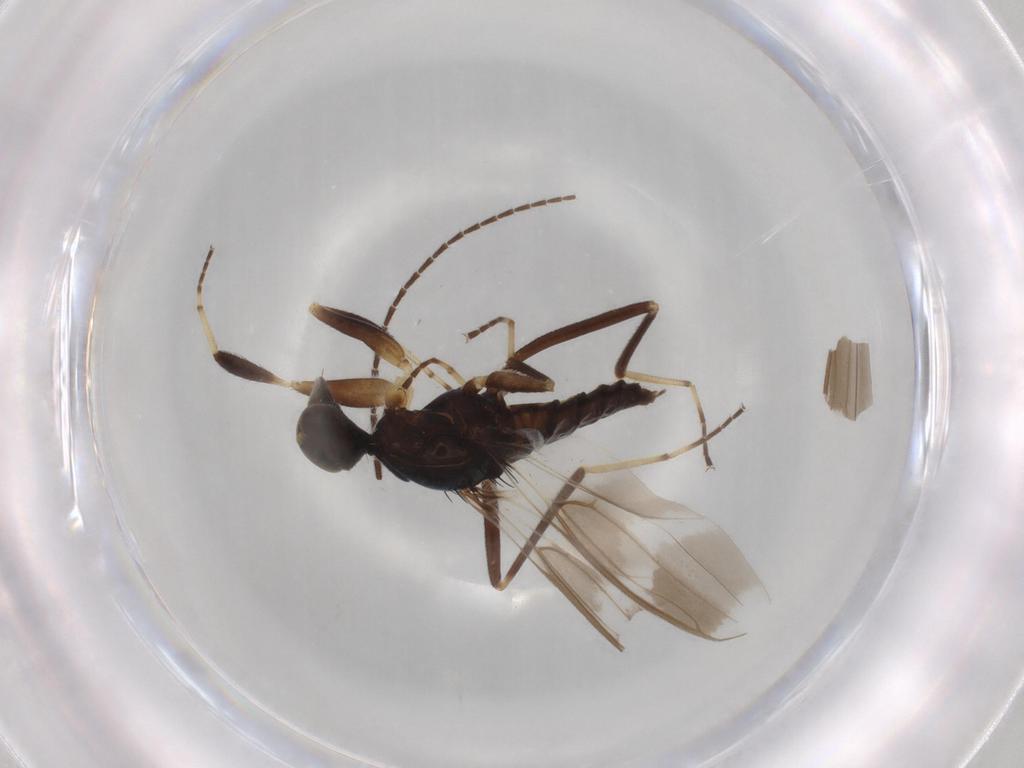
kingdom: Animalia
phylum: Arthropoda
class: Insecta
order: Diptera
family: Hybotidae
